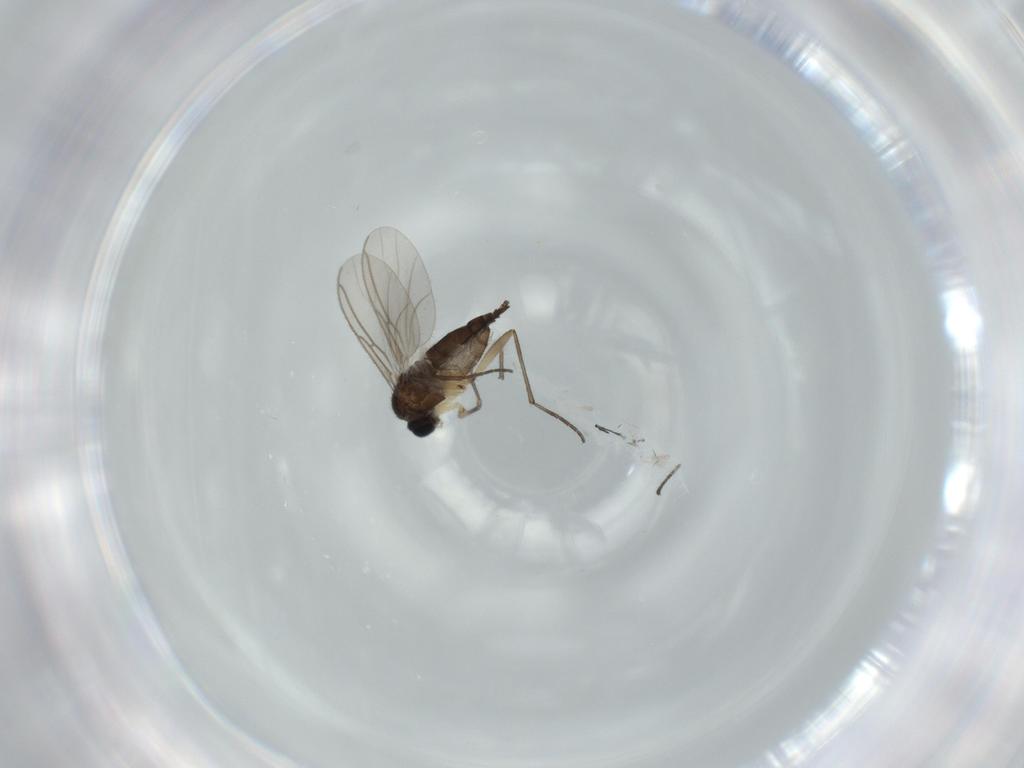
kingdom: Animalia
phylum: Arthropoda
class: Insecta
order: Diptera
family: Sciaridae
